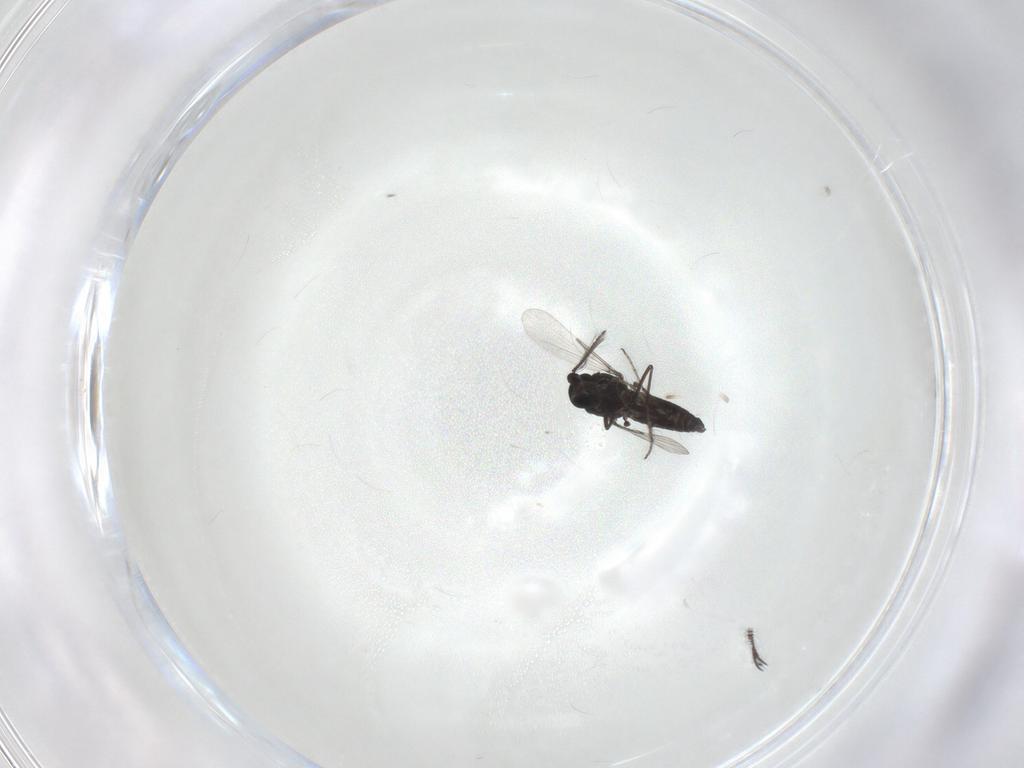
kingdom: Animalia
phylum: Arthropoda
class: Insecta
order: Diptera
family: Ceratopogonidae
